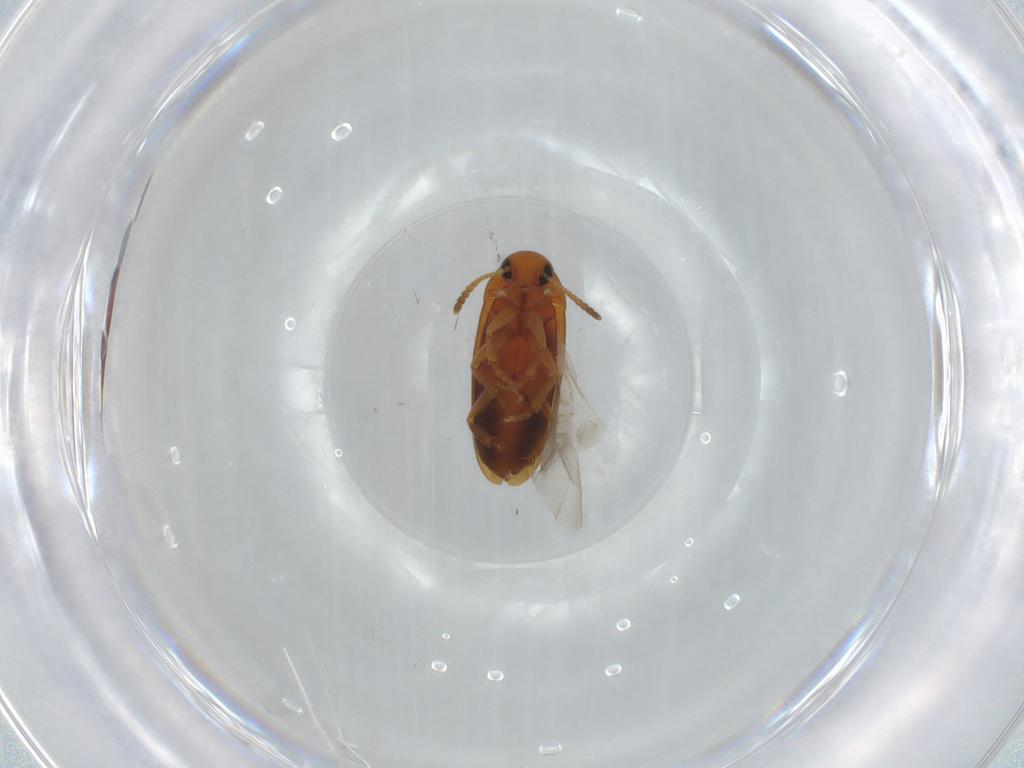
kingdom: Animalia
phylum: Arthropoda
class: Insecta
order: Coleoptera
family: Scraptiidae
